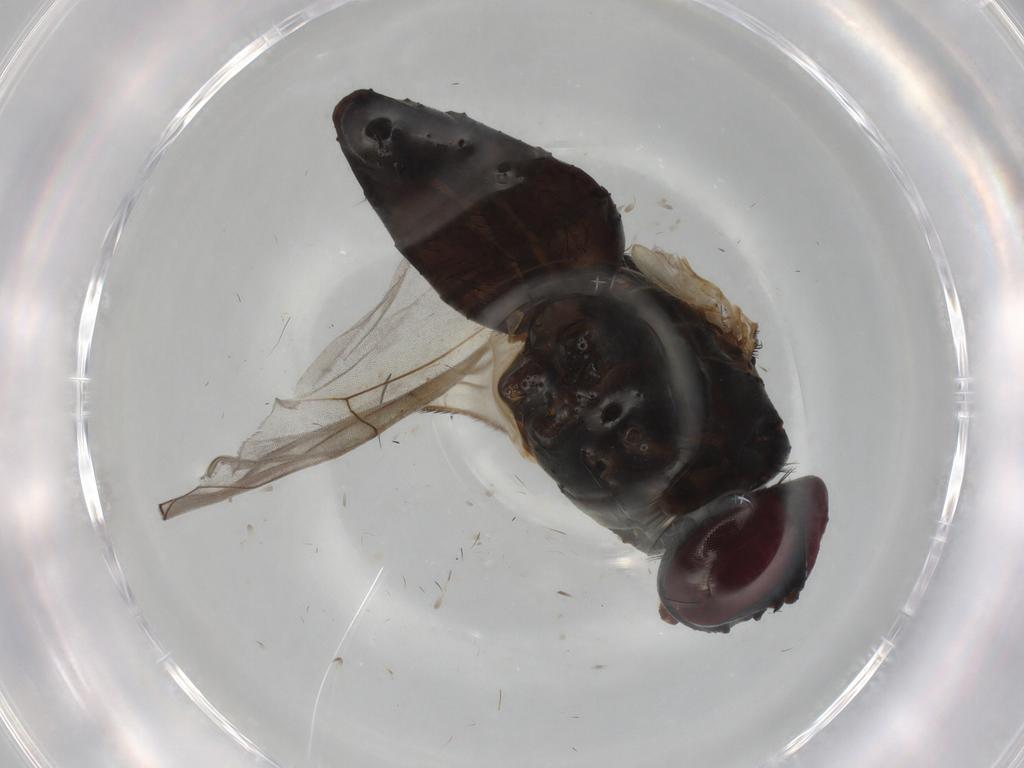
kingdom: Animalia
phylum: Arthropoda
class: Insecta
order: Diptera
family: Muscidae
